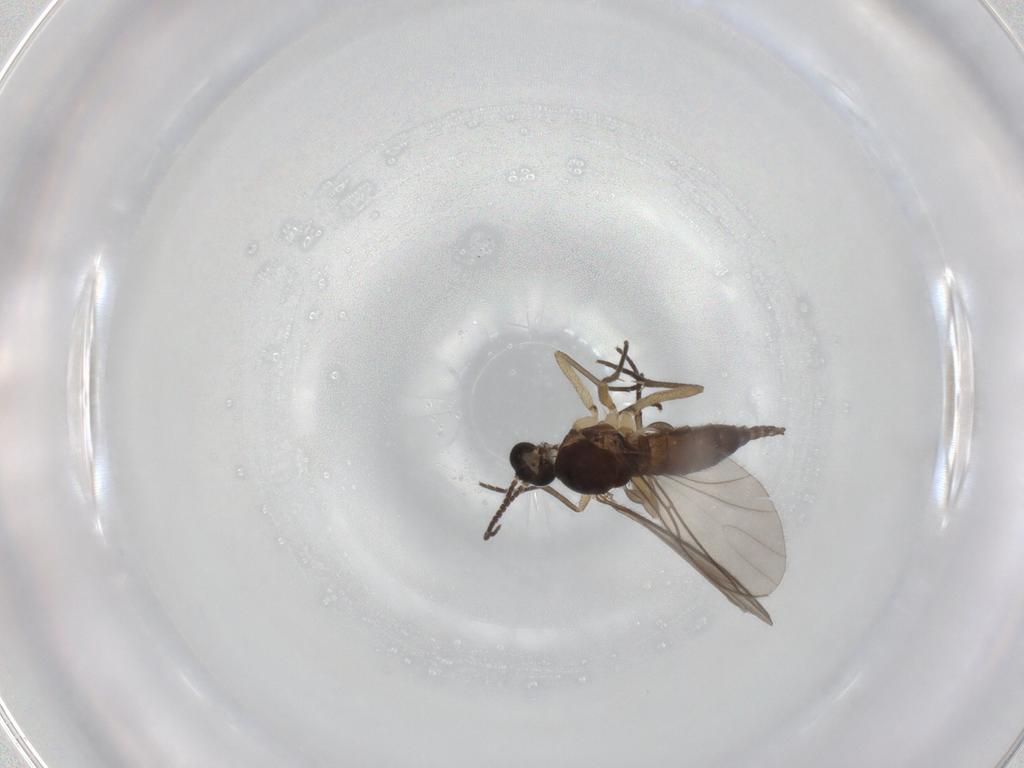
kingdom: Animalia
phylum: Arthropoda
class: Insecta
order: Diptera
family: Sciaridae
